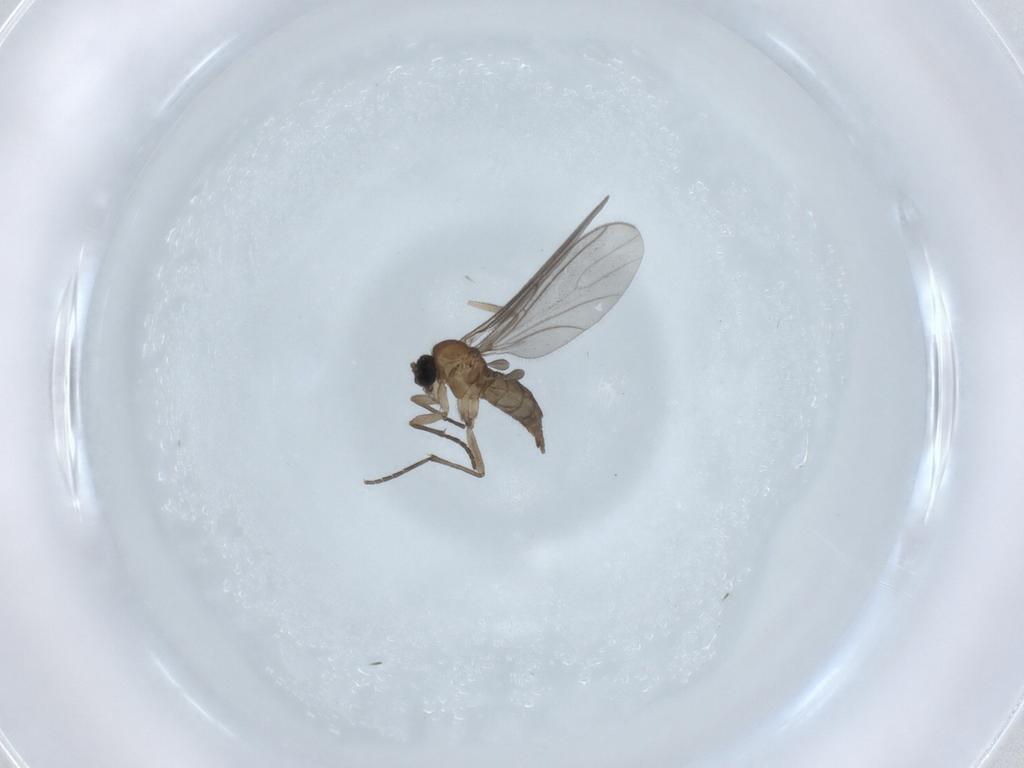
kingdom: Animalia
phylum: Arthropoda
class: Insecta
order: Diptera
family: Sciaridae
